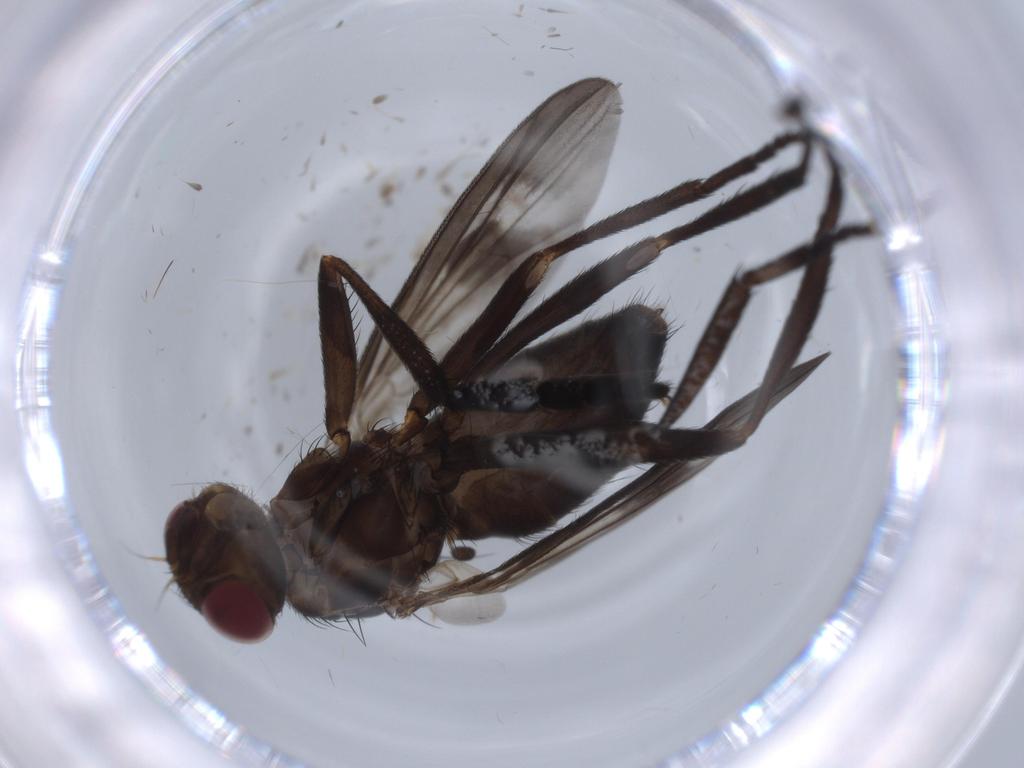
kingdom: Animalia
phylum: Arthropoda
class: Insecta
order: Diptera
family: Calliphoridae
